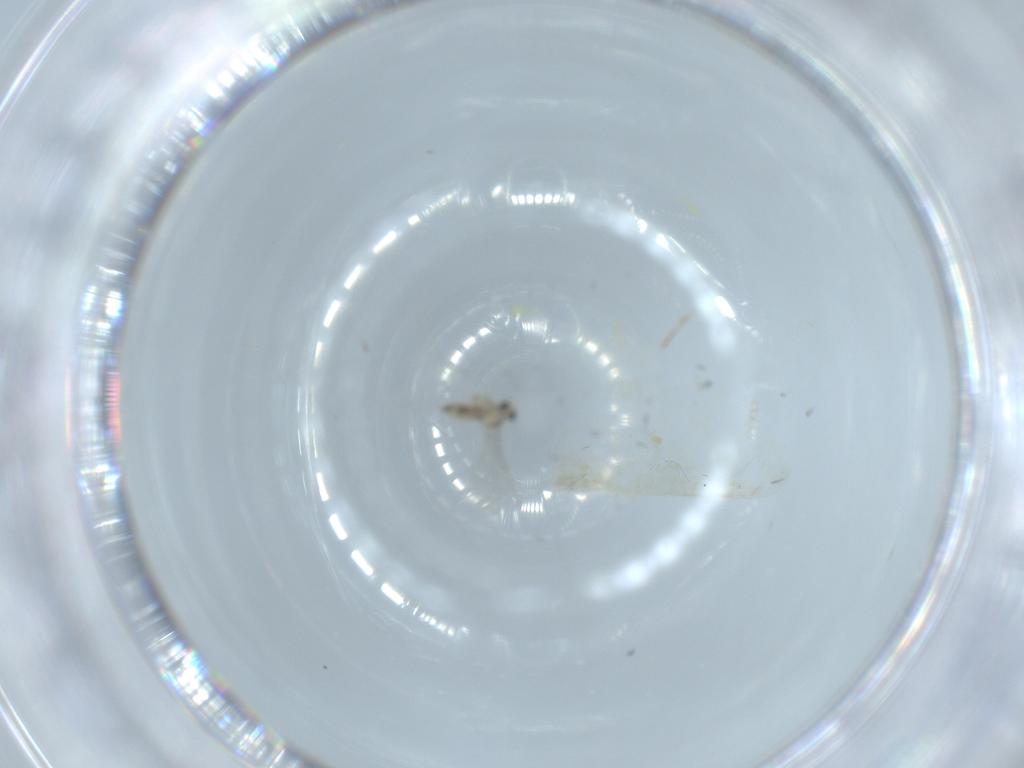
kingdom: Animalia
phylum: Arthropoda
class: Insecta
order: Diptera
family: Cecidomyiidae
